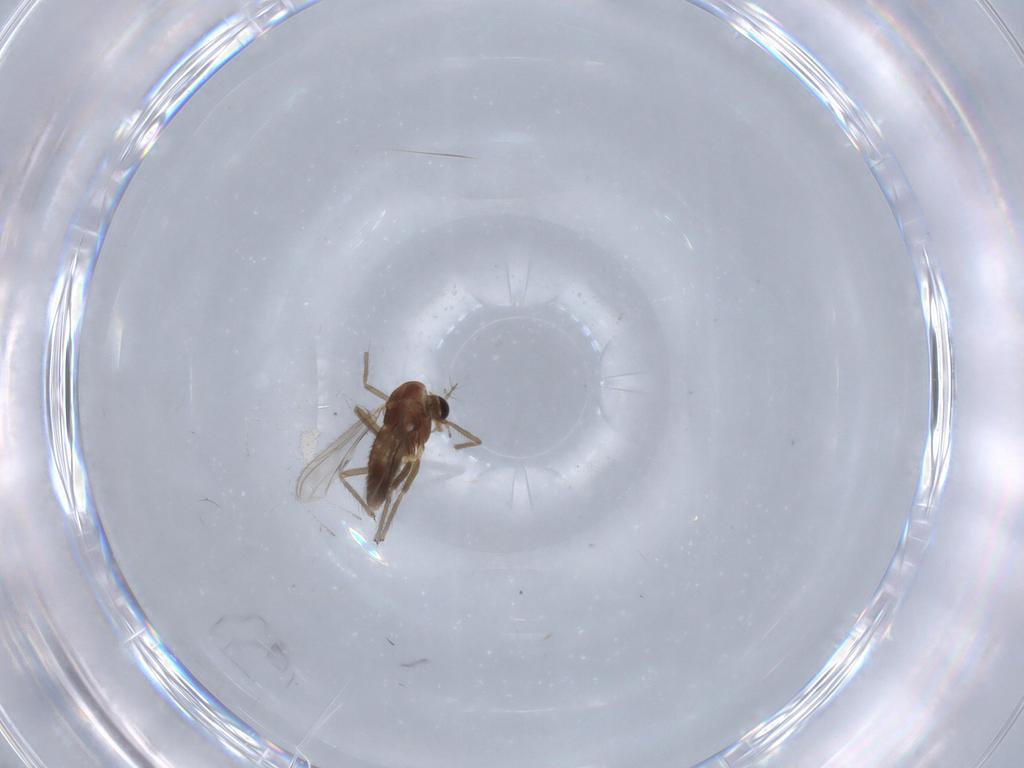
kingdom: Animalia
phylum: Arthropoda
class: Insecta
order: Diptera
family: Chironomidae
